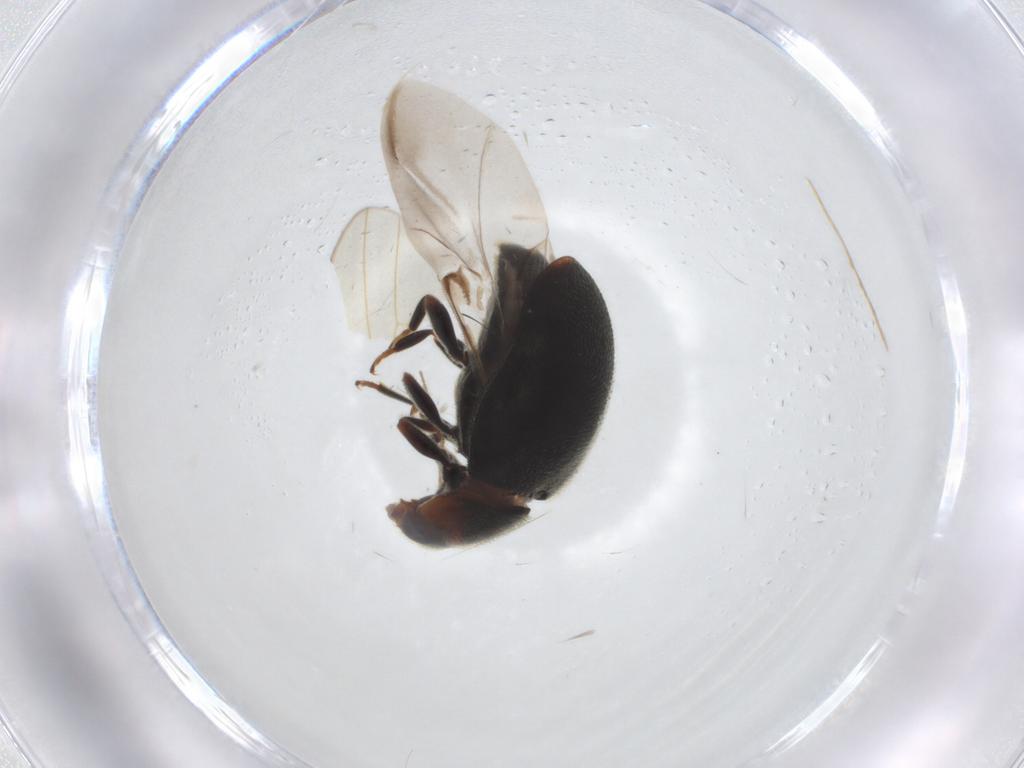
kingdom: Animalia
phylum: Arthropoda
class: Insecta
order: Coleoptera
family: Coccinellidae
